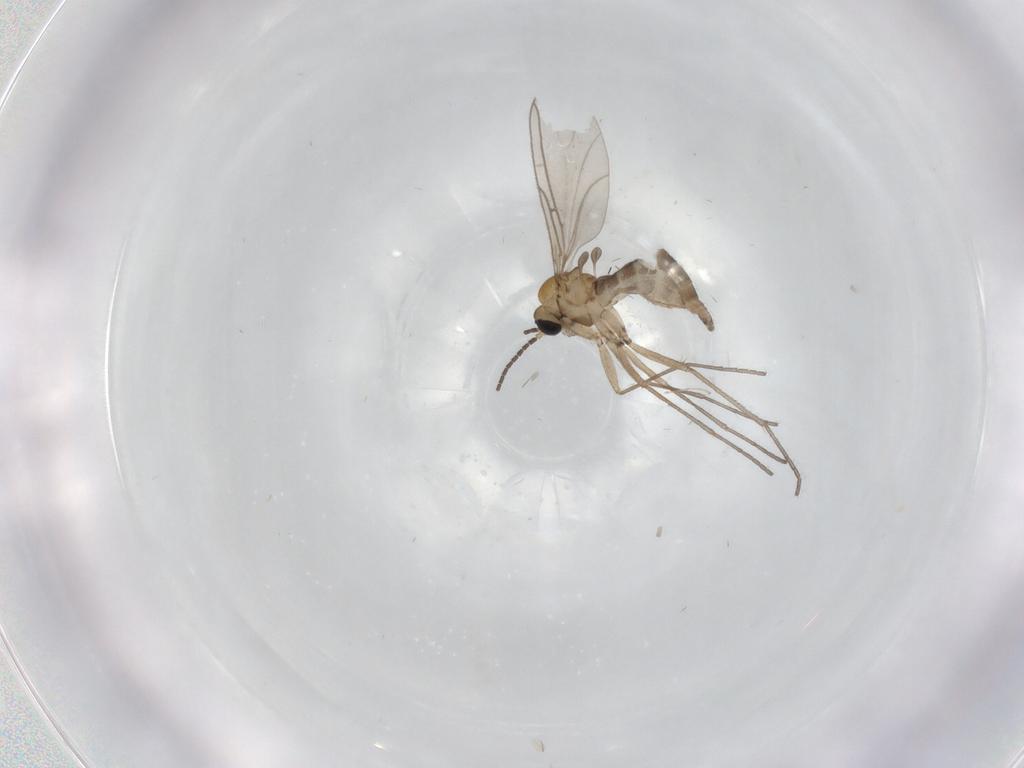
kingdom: Animalia
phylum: Arthropoda
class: Insecta
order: Diptera
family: Sciaridae
